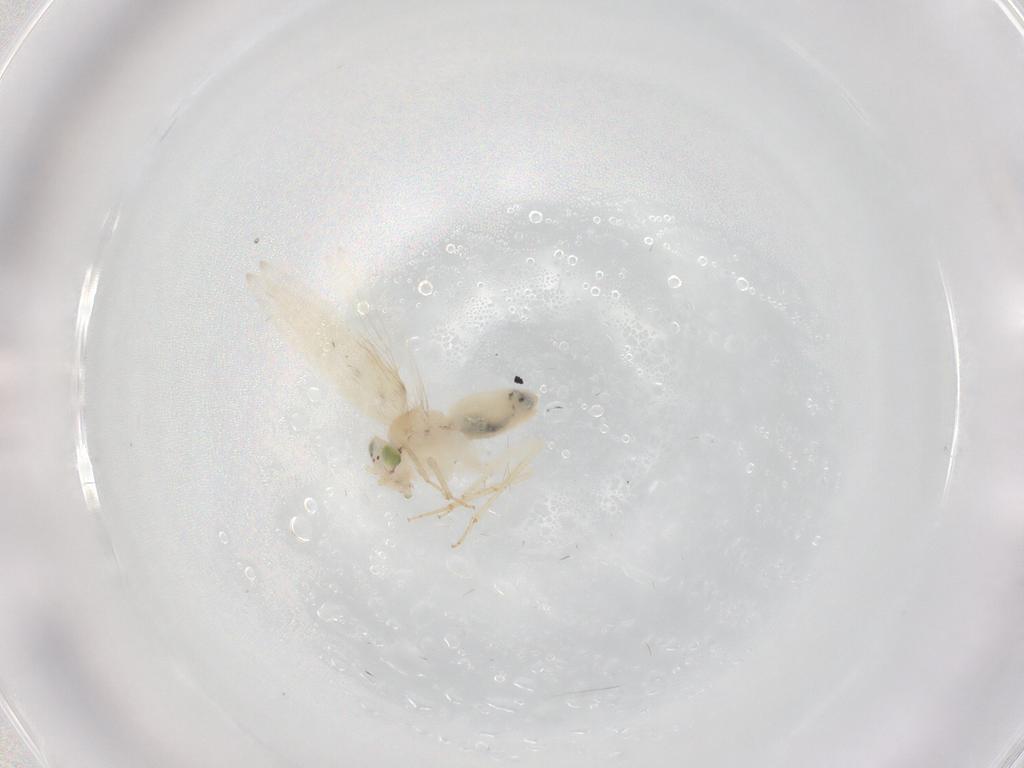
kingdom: Animalia
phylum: Arthropoda
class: Insecta
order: Psocodea
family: Lepidopsocidae
